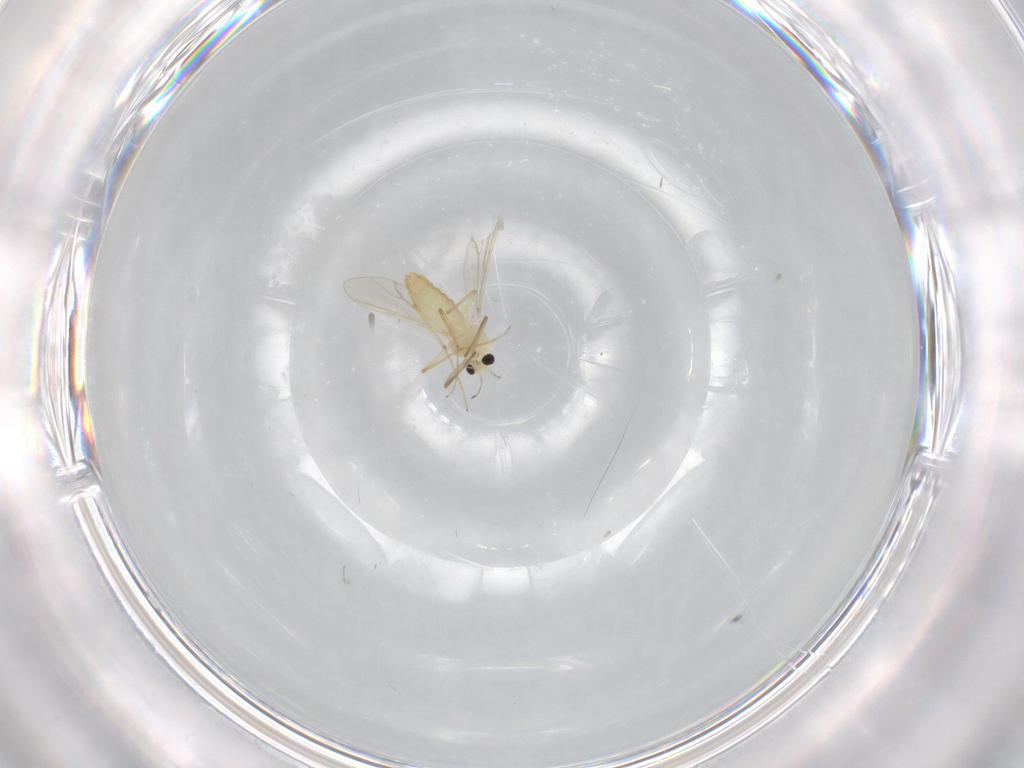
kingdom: Animalia
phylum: Arthropoda
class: Insecta
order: Diptera
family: Chironomidae
